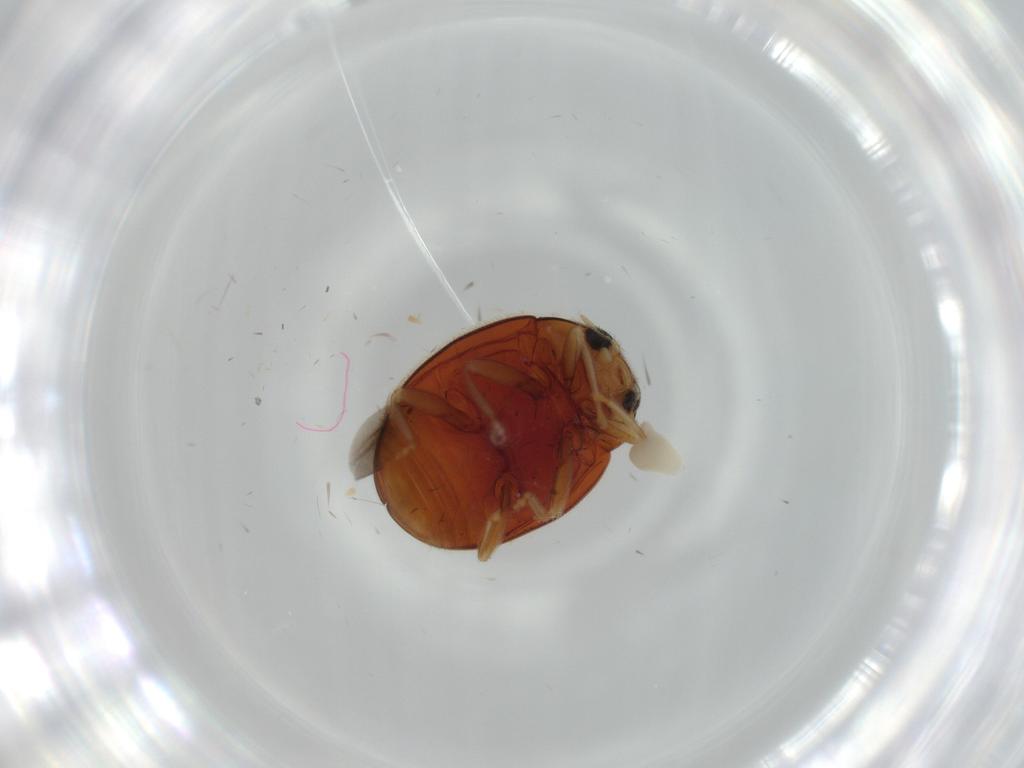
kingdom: Animalia
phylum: Arthropoda
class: Insecta
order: Coleoptera
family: Coccinellidae
